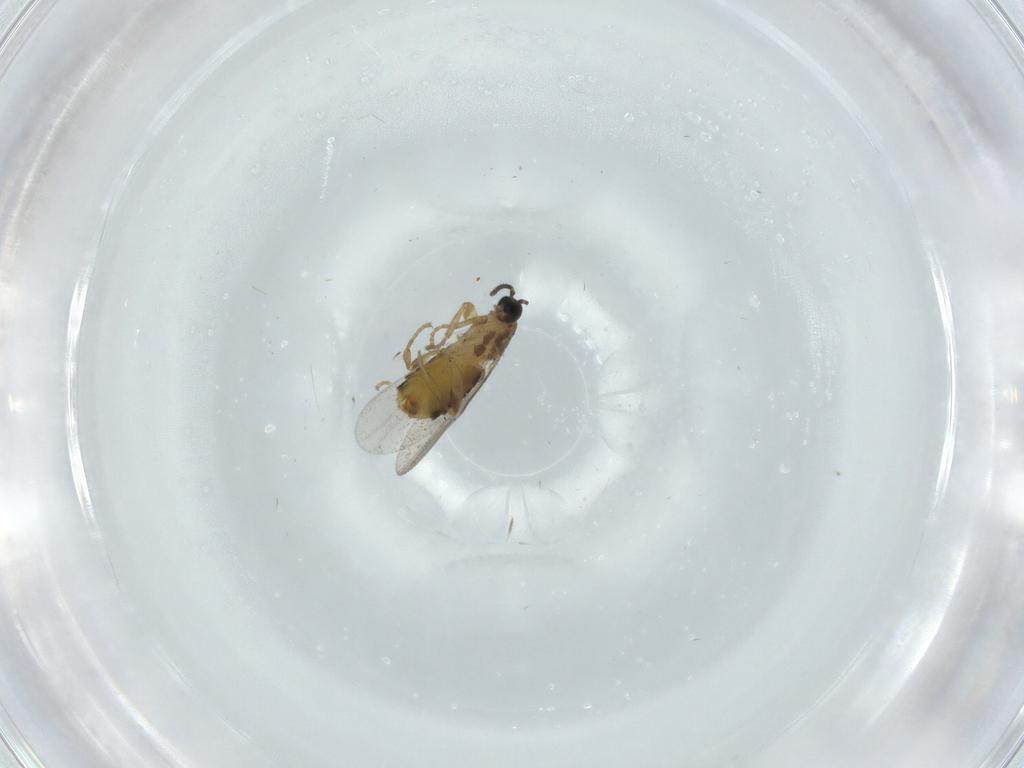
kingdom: Animalia
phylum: Arthropoda
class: Insecta
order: Diptera
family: Scatopsidae
